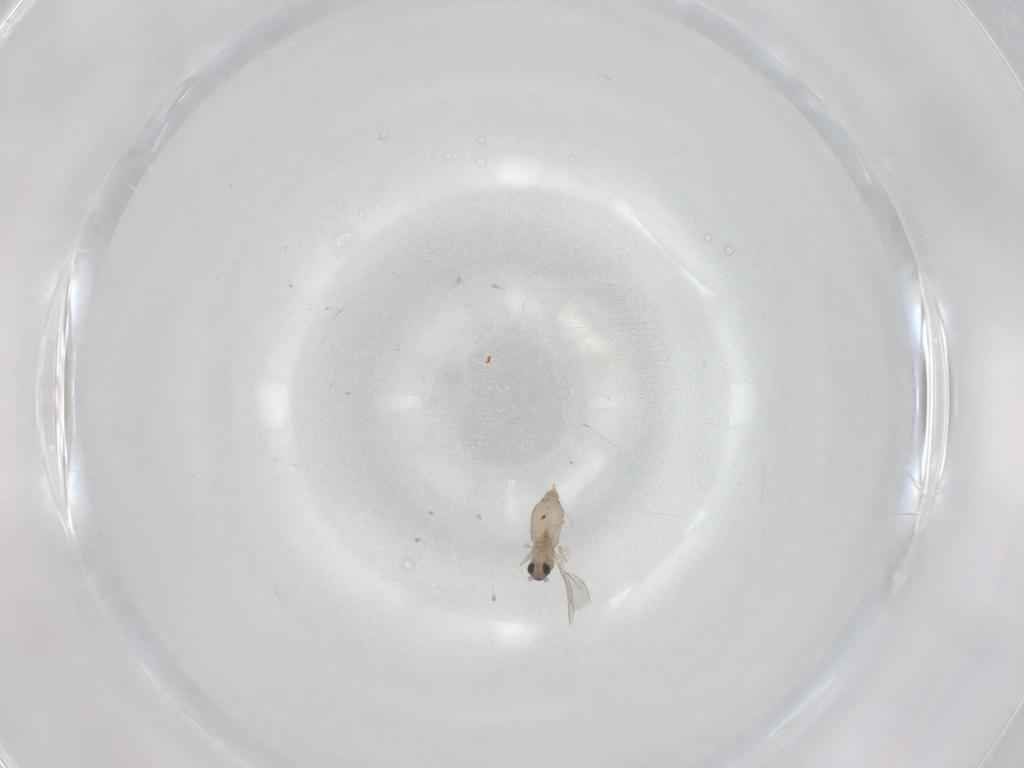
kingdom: Animalia
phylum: Arthropoda
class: Insecta
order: Diptera
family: Cecidomyiidae
